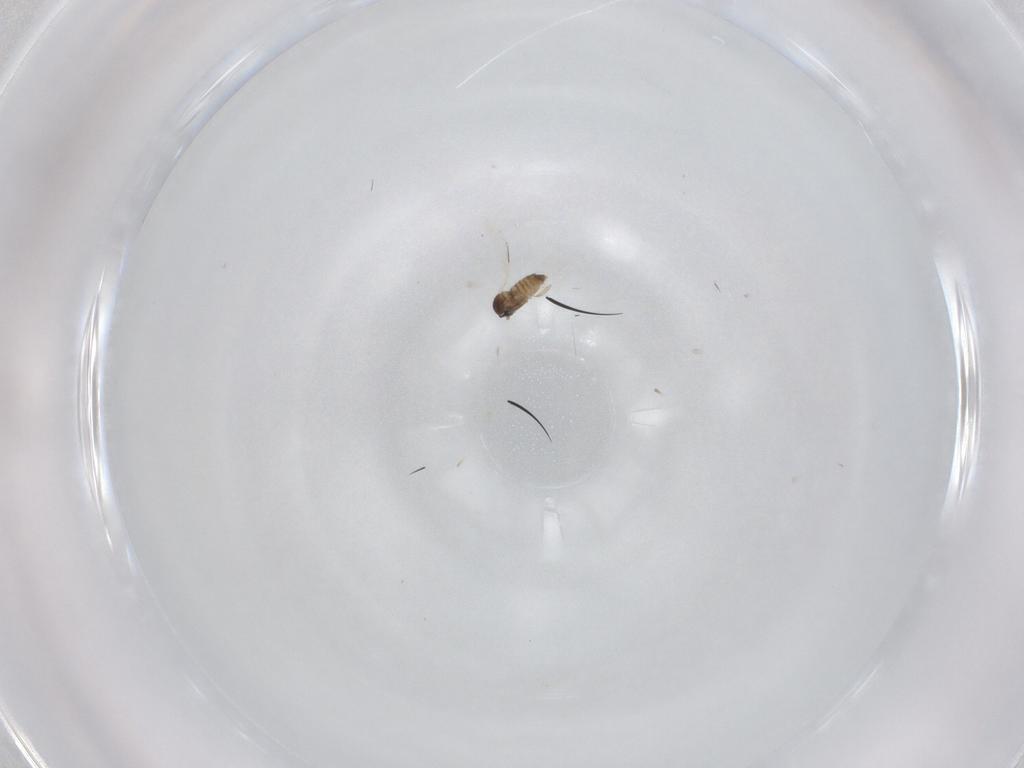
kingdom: Animalia
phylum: Arthropoda
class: Insecta
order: Diptera
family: Cecidomyiidae
